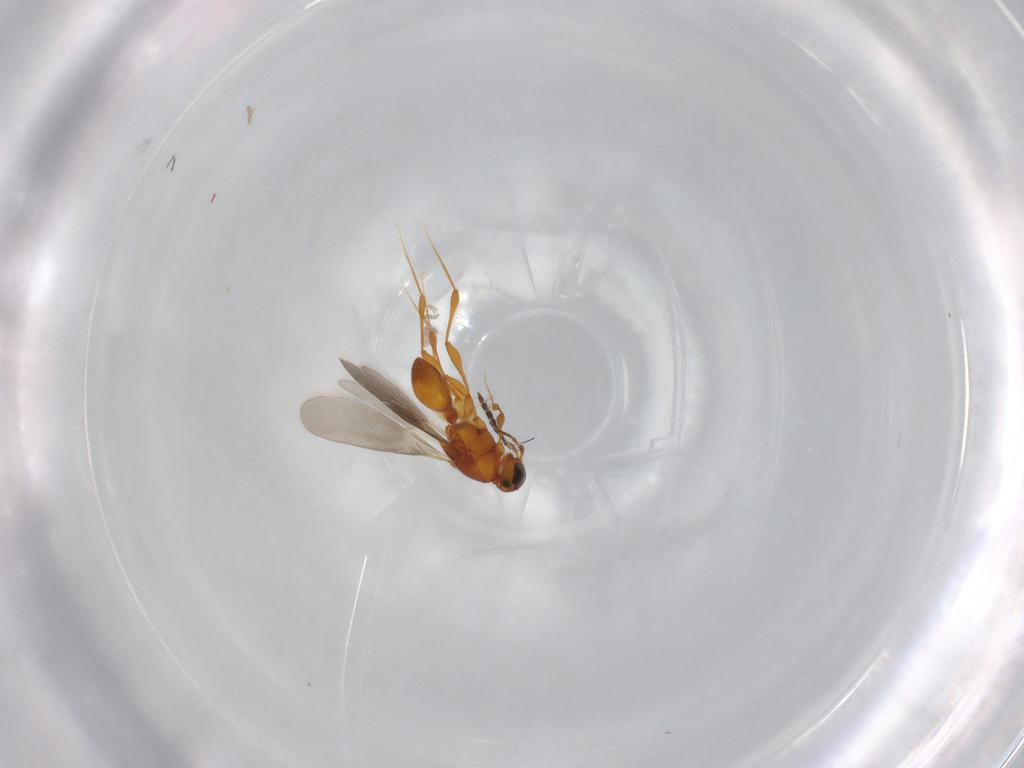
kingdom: Animalia
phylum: Arthropoda
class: Insecta
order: Hymenoptera
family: Platygastridae
